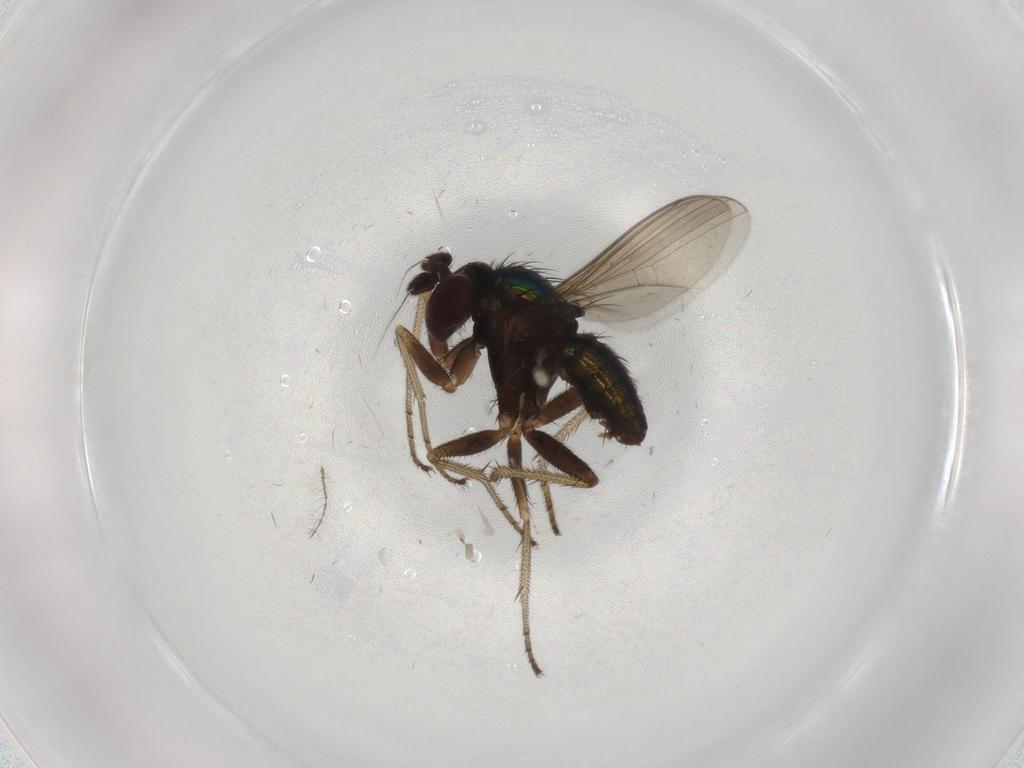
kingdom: Animalia
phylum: Arthropoda
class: Insecta
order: Diptera
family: Dolichopodidae
